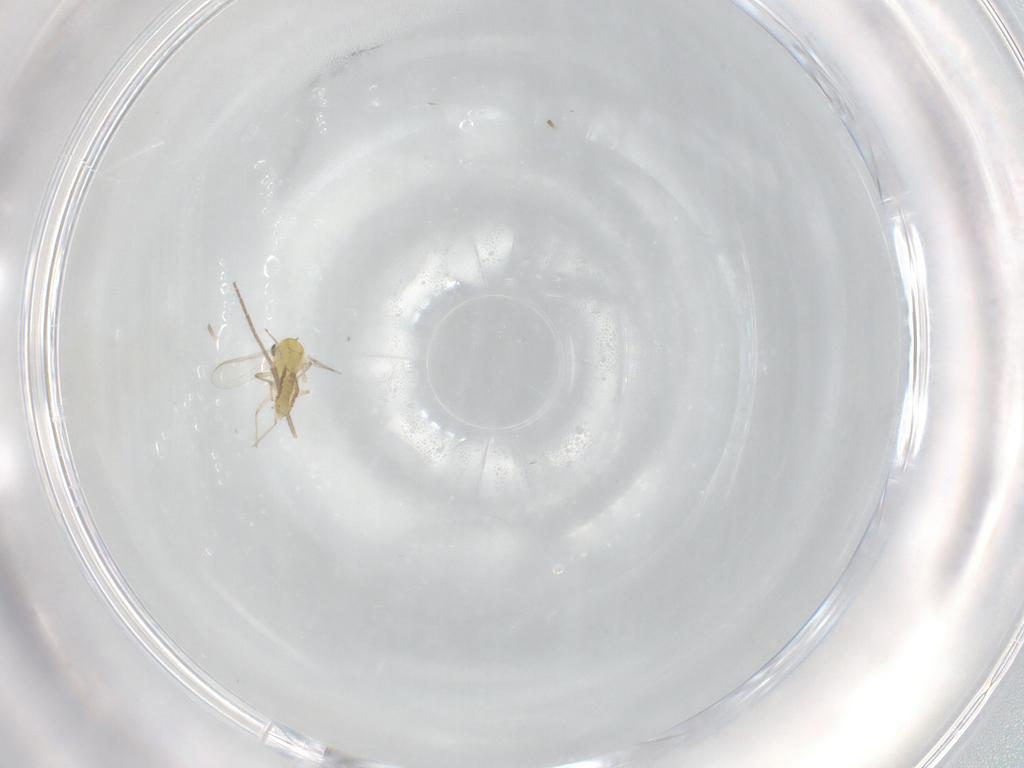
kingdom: Animalia
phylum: Arthropoda
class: Insecta
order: Diptera
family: Chironomidae
